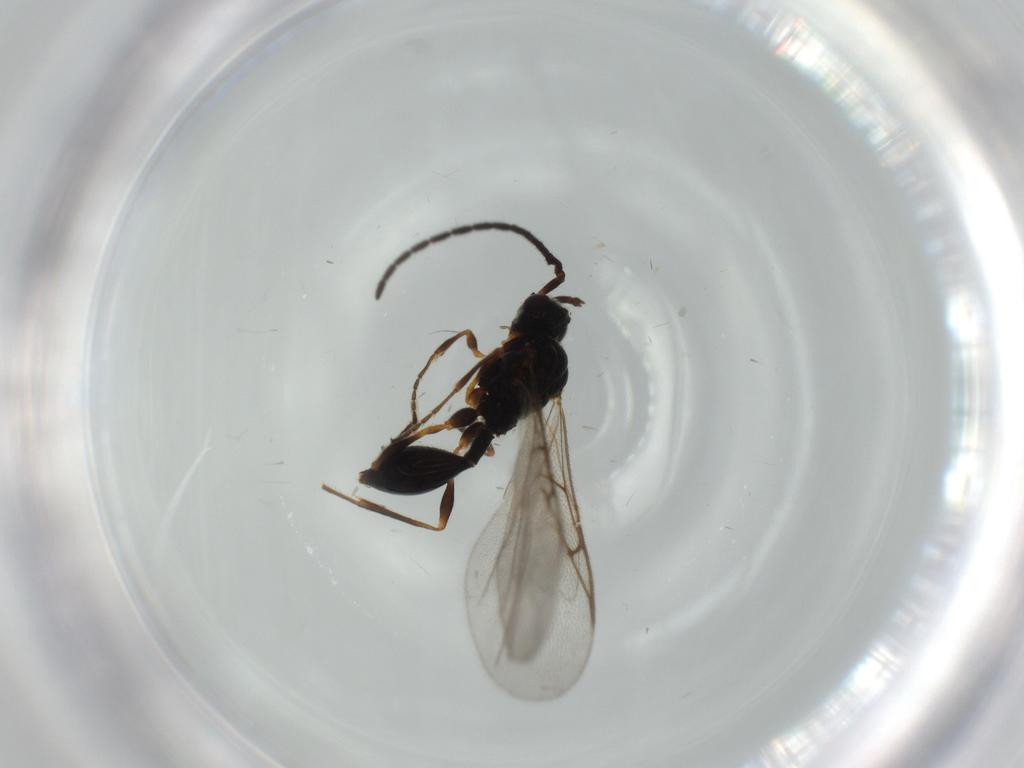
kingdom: Animalia
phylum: Arthropoda
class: Insecta
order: Hymenoptera
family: Diapriidae
